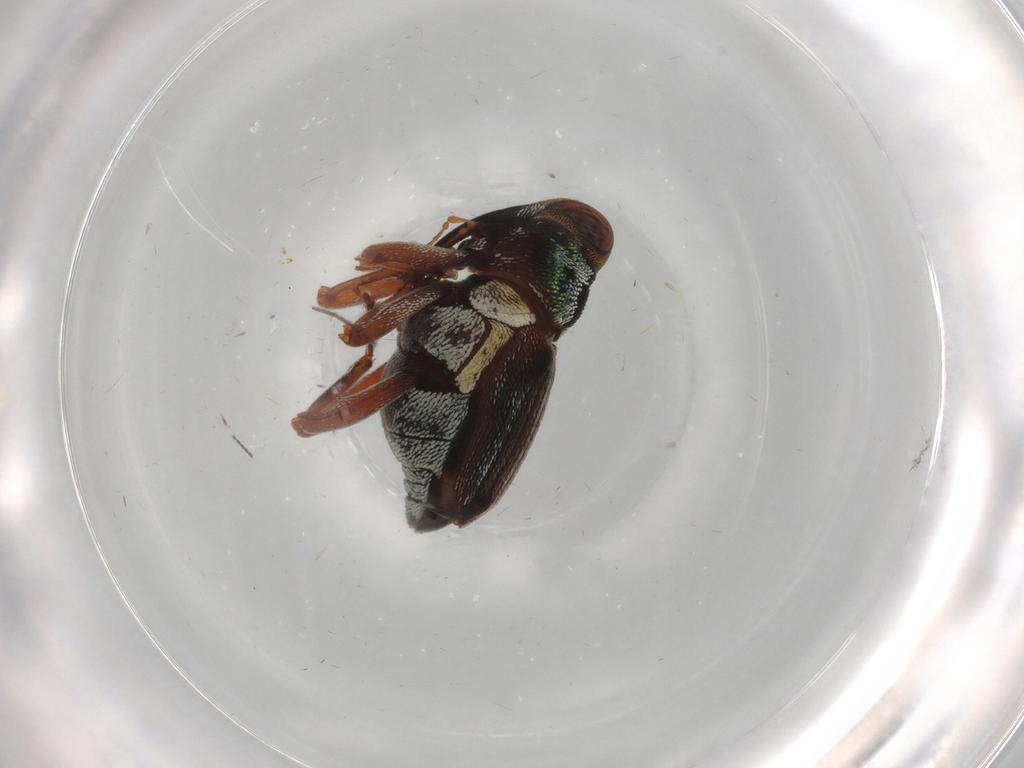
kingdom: Animalia
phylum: Arthropoda
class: Insecta
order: Coleoptera
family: Curculionidae
